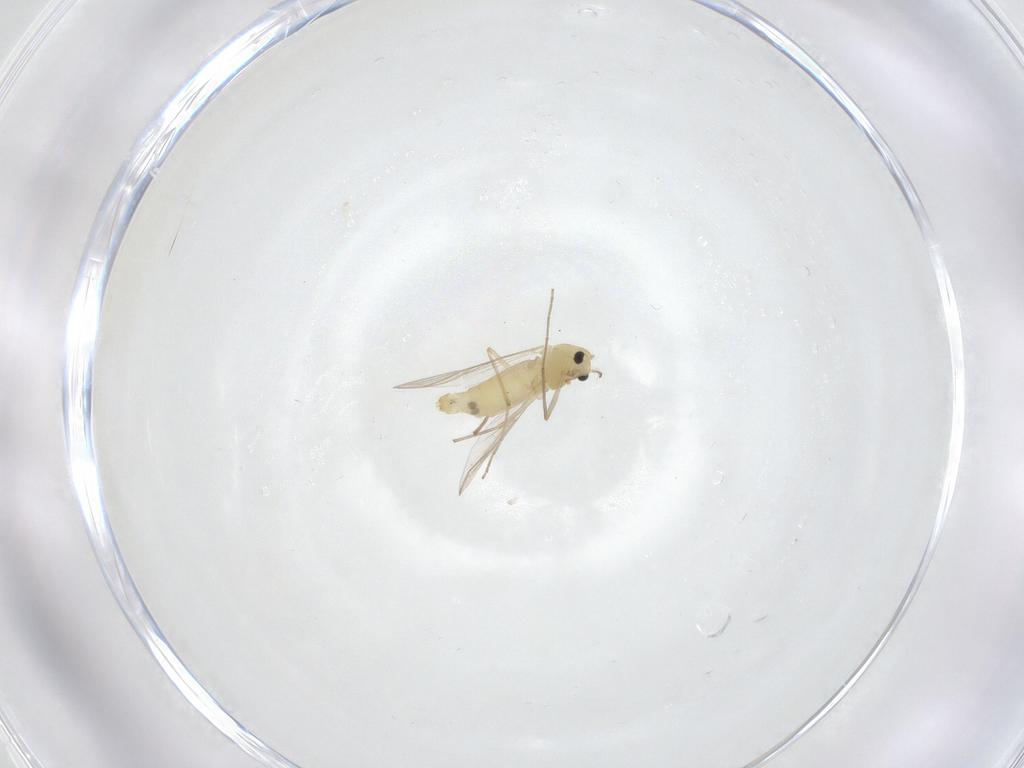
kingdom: Animalia
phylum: Arthropoda
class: Insecta
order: Diptera
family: Chironomidae
